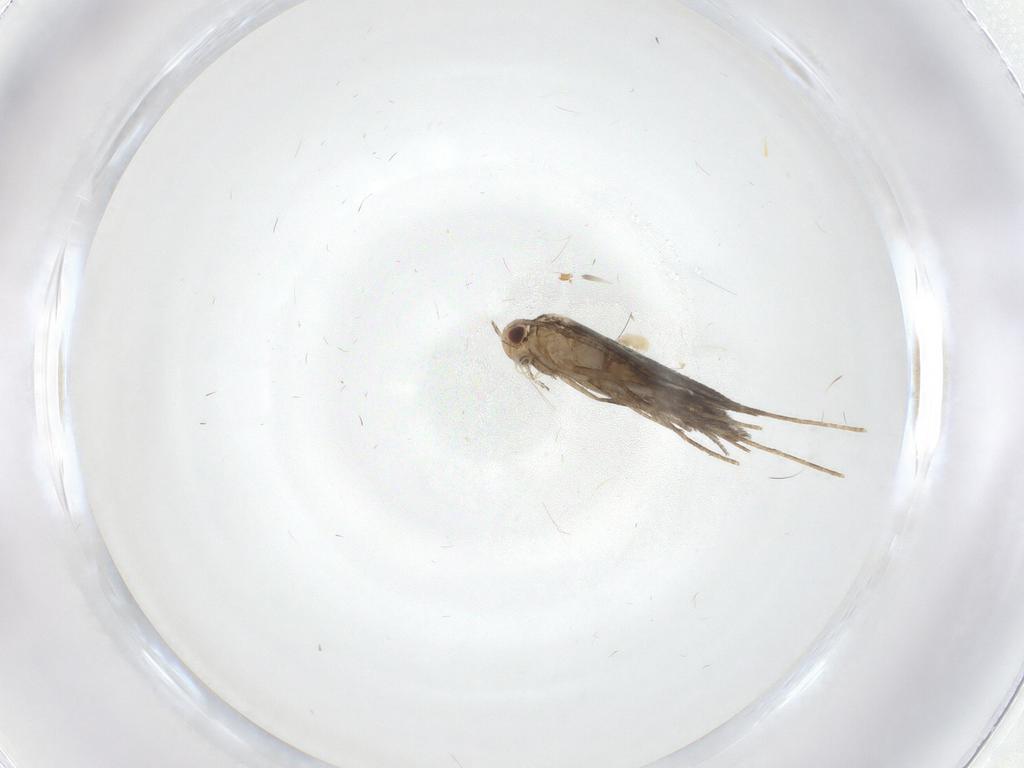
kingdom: Animalia
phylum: Arthropoda
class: Insecta
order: Lepidoptera
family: Gracillariidae
